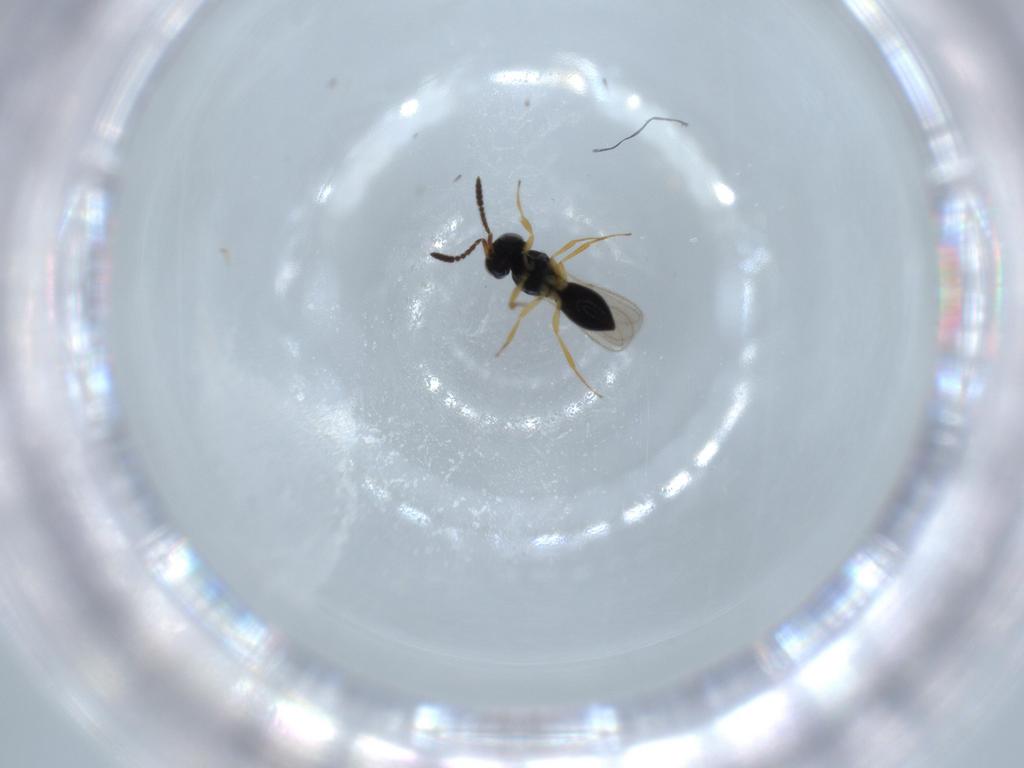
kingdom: Animalia
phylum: Arthropoda
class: Insecta
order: Hymenoptera
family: Scelionidae
